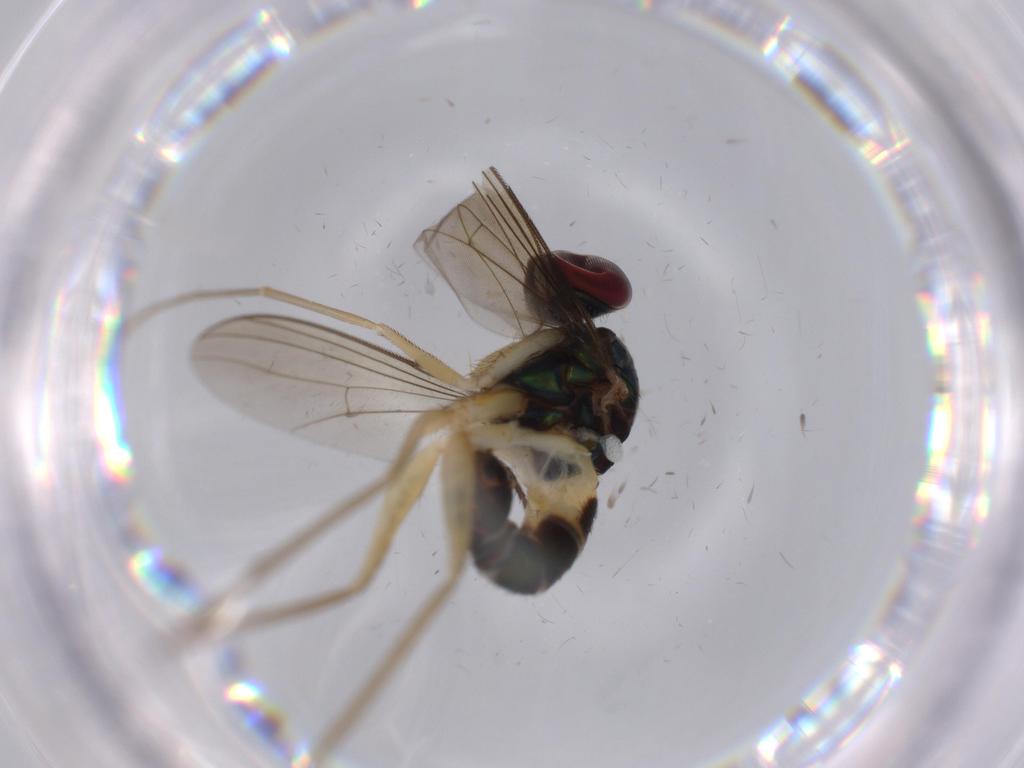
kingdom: Animalia
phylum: Arthropoda
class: Insecta
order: Diptera
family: Dolichopodidae
